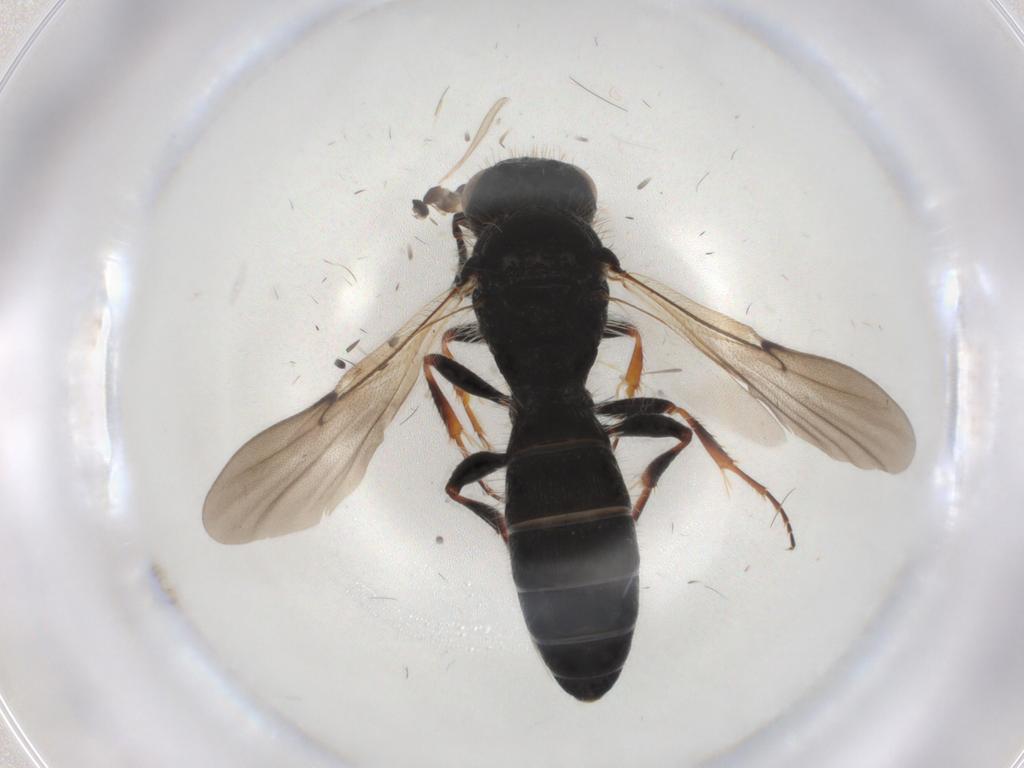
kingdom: Animalia
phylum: Arthropoda
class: Insecta
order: Hymenoptera
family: Scelionidae
